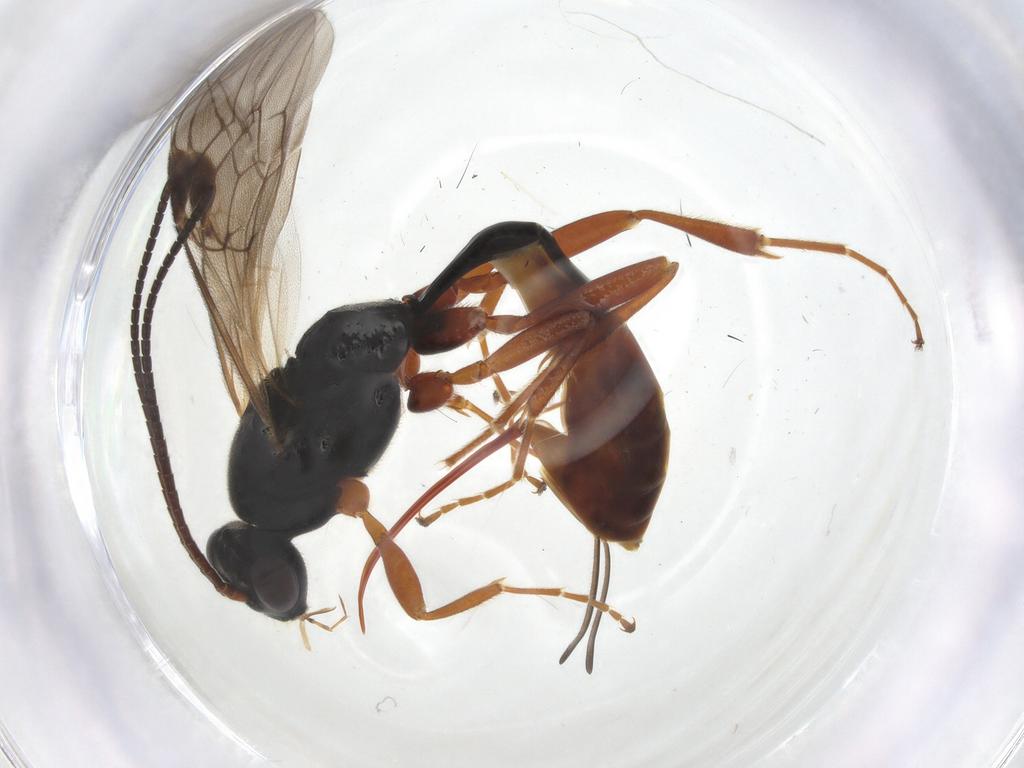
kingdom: Animalia
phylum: Arthropoda
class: Insecta
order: Hymenoptera
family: Ichneumonidae
